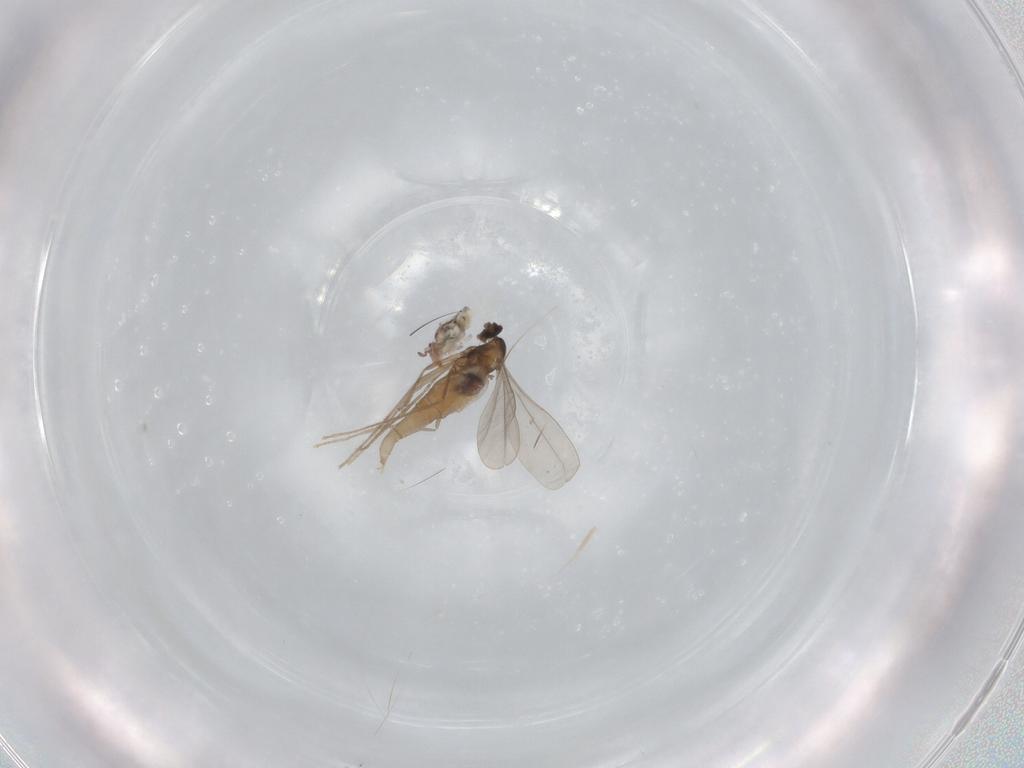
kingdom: Animalia
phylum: Arthropoda
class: Insecta
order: Diptera
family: Cecidomyiidae
